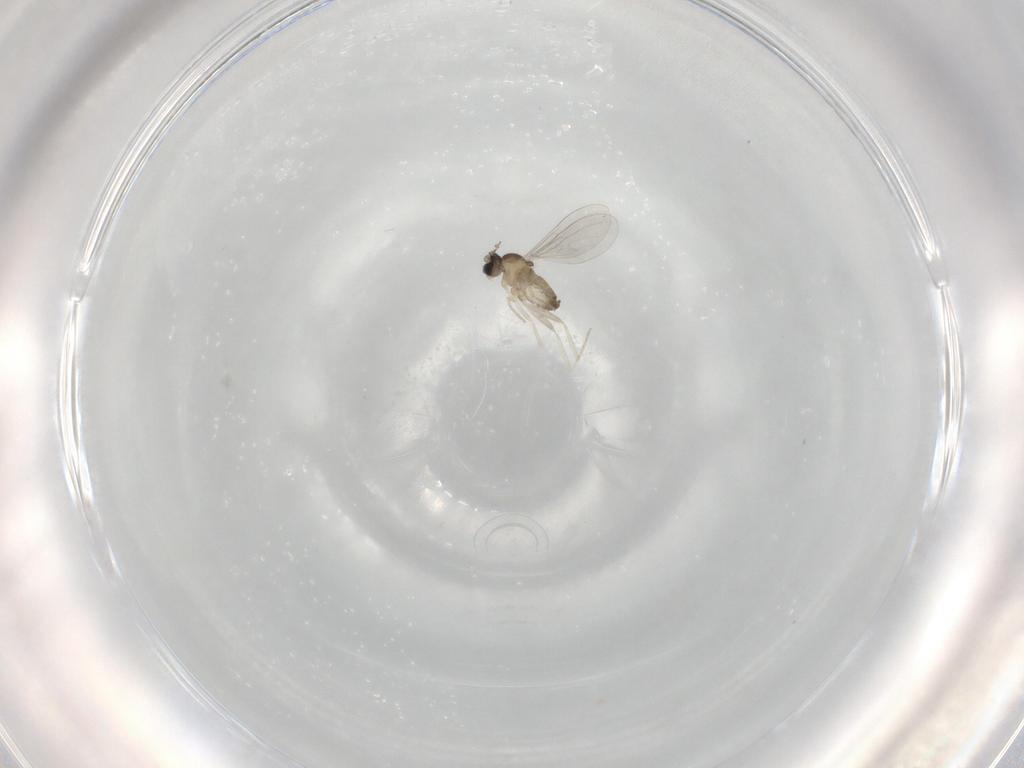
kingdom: Animalia
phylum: Arthropoda
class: Insecta
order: Diptera
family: Cecidomyiidae
